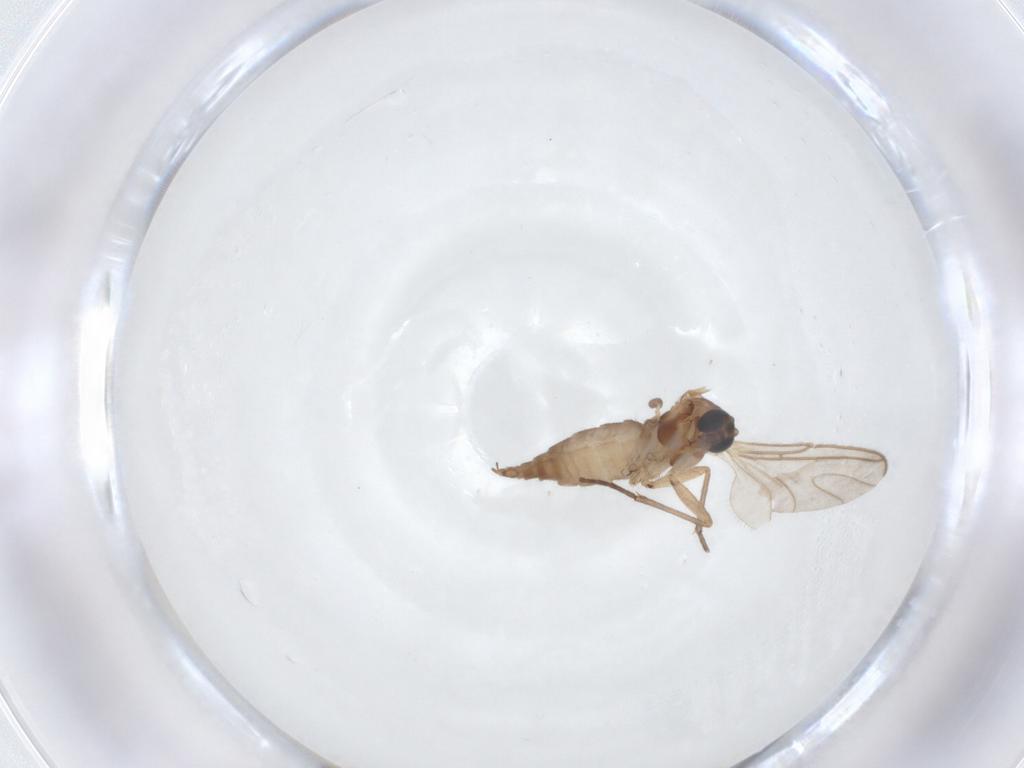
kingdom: Animalia
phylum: Arthropoda
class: Insecta
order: Diptera
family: Sciaridae
